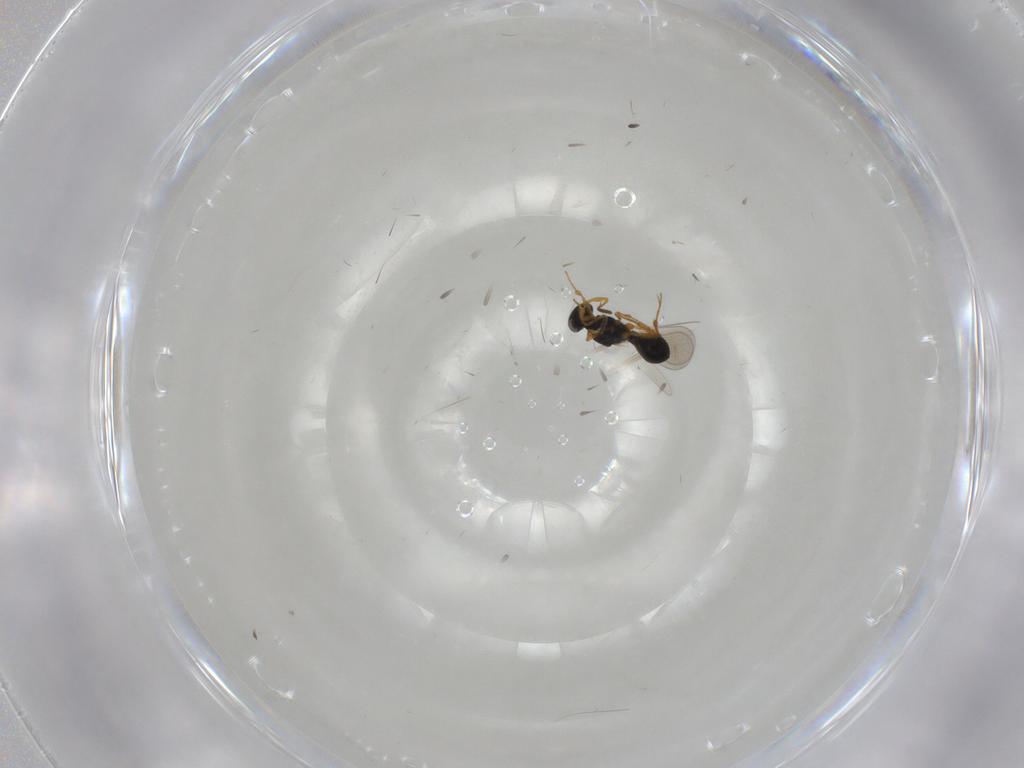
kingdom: Animalia
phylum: Arthropoda
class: Insecta
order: Hymenoptera
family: Platygastridae
